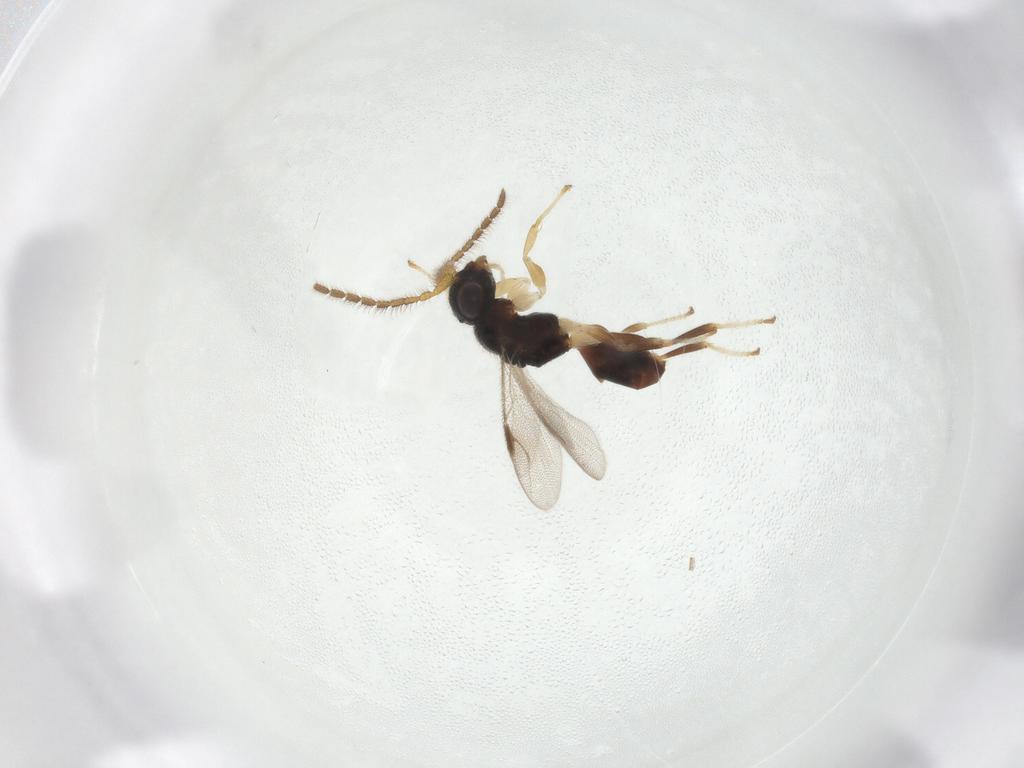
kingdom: Animalia
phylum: Arthropoda
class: Insecta
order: Hymenoptera
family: Dryinidae
